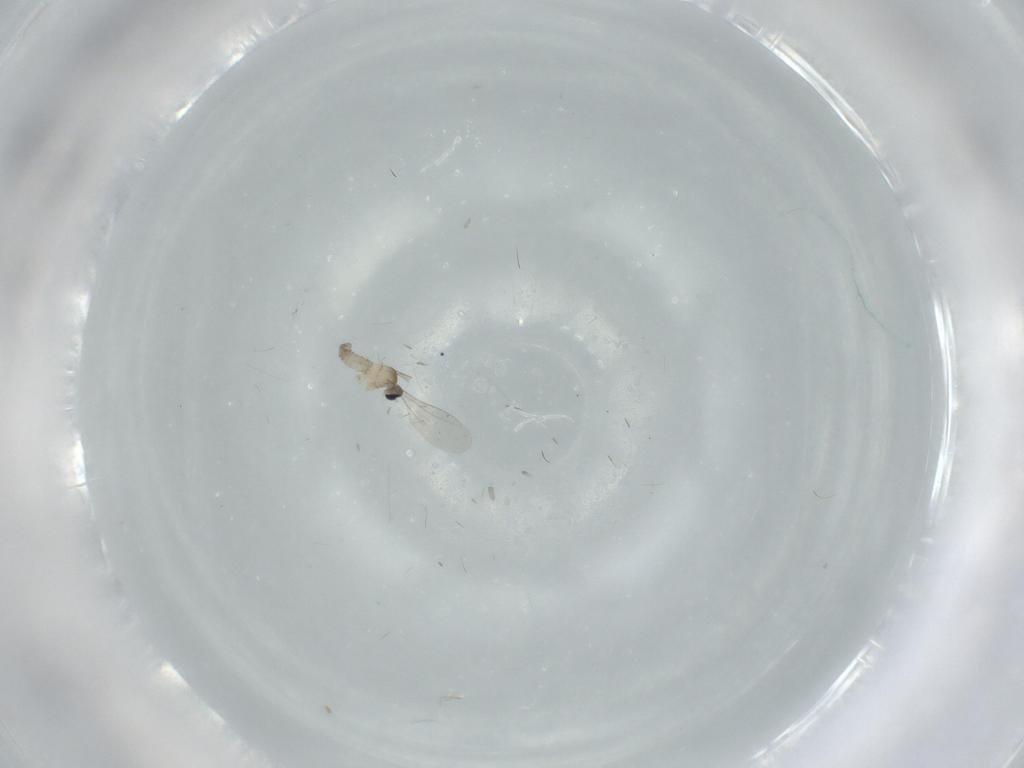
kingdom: Animalia
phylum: Arthropoda
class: Insecta
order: Diptera
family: Cecidomyiidae
